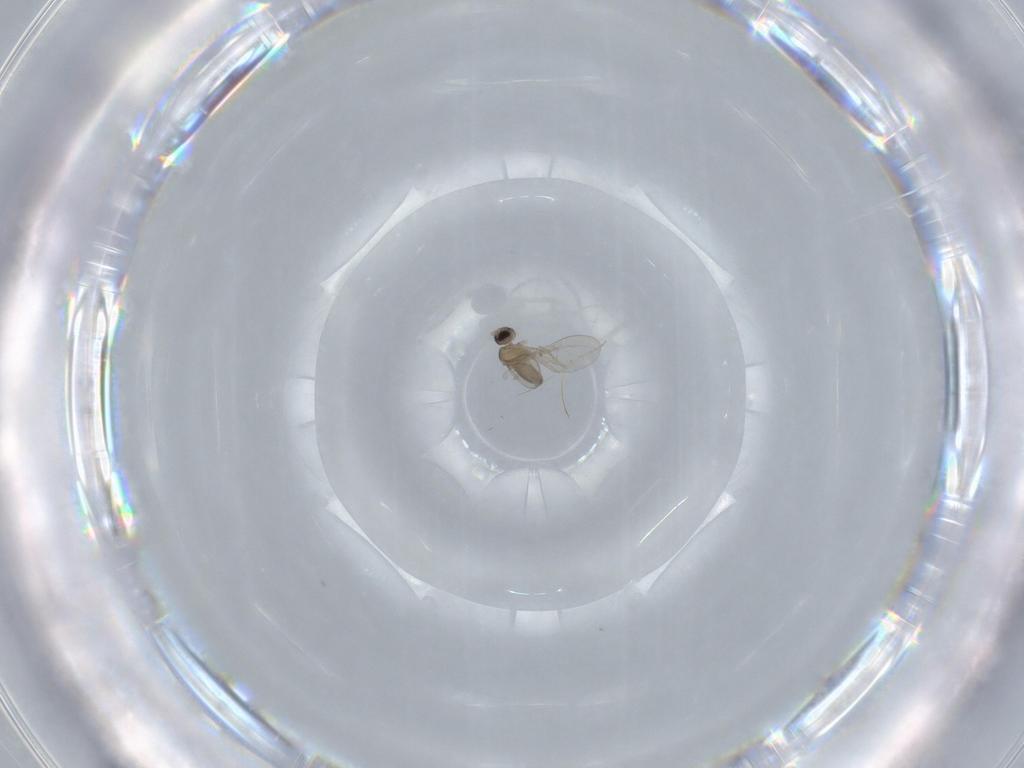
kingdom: Animalia
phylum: Arthropoda
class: Insecta
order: Diptera
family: Cecidomyiidae
